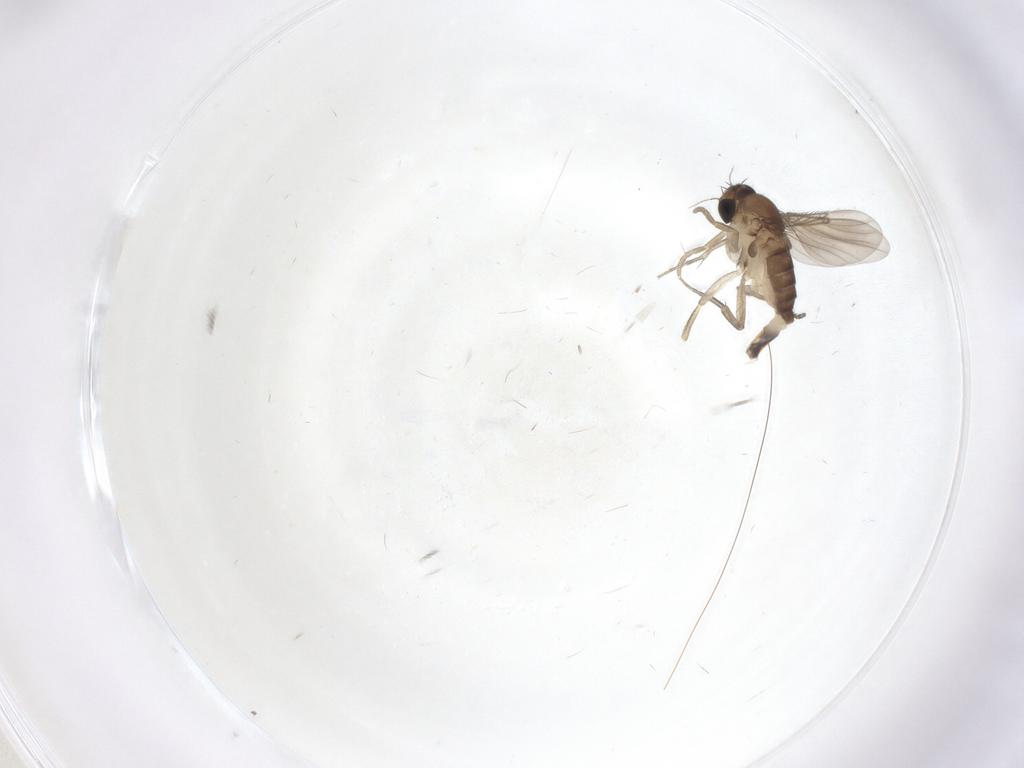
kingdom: Animalia
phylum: Arthropoda
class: Insecta
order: Diptera
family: Phoridae
